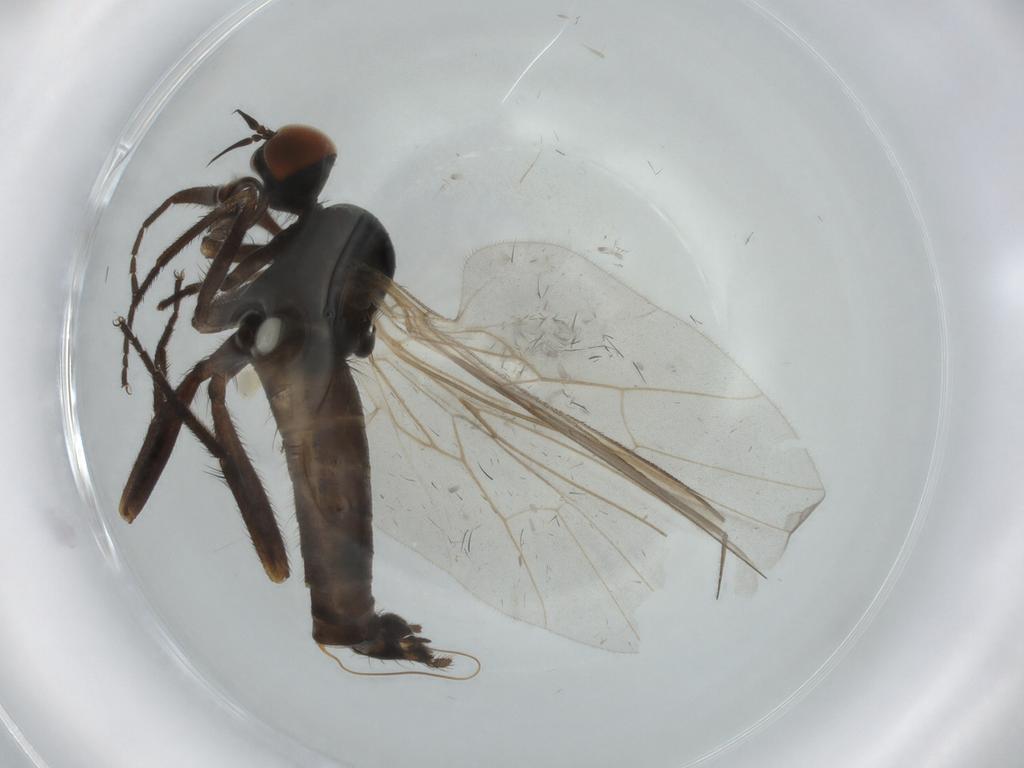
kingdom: Animalia
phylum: Arthropoda
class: Insecta
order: Diptera
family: Empididae
